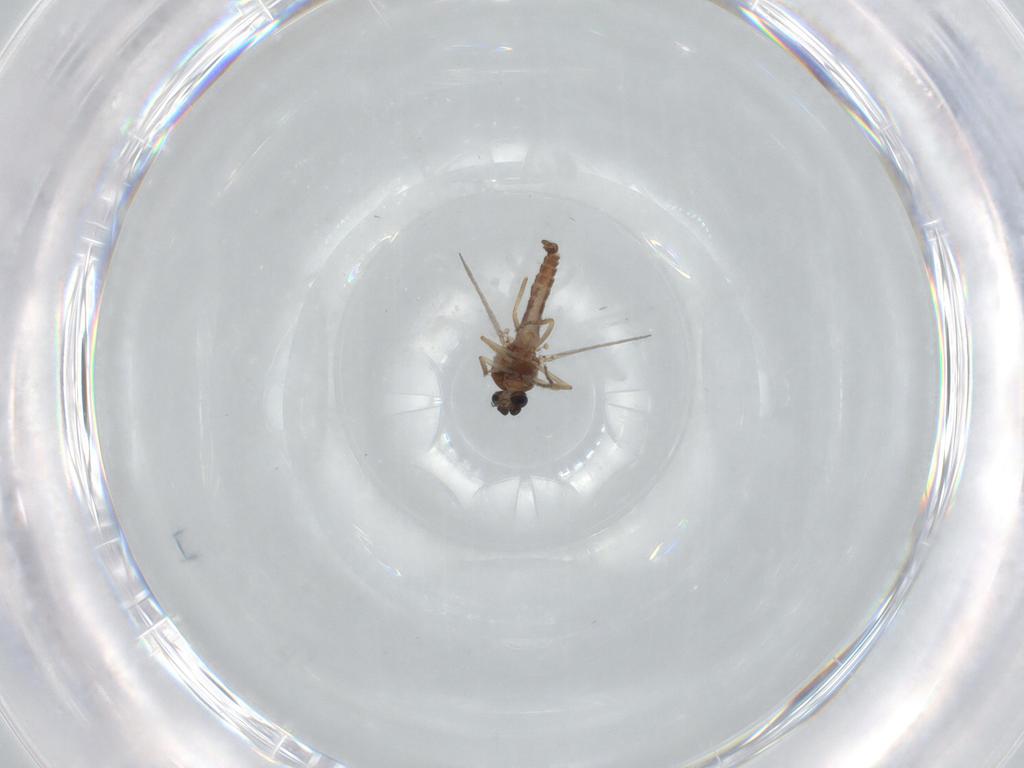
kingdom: Animalia
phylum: Arthropoda
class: Insecta
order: Diptera
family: Ceratopogonidae
